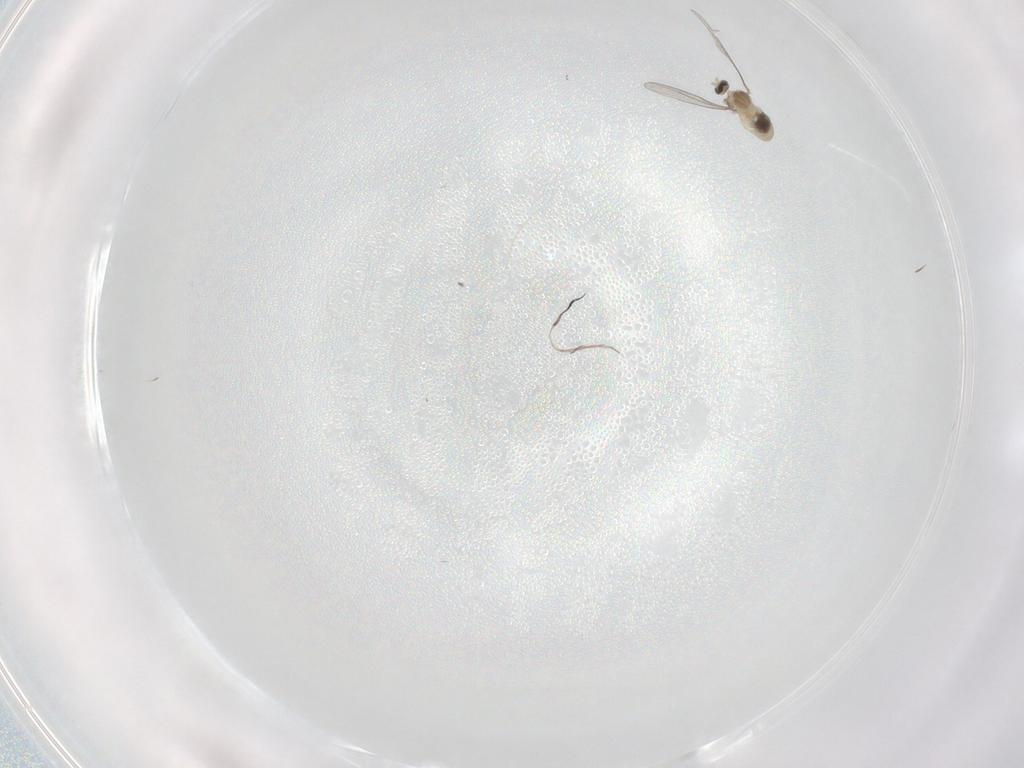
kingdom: Animalia
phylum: Arthropoda
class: Insecta
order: Diptera
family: Cecidomyiidae
